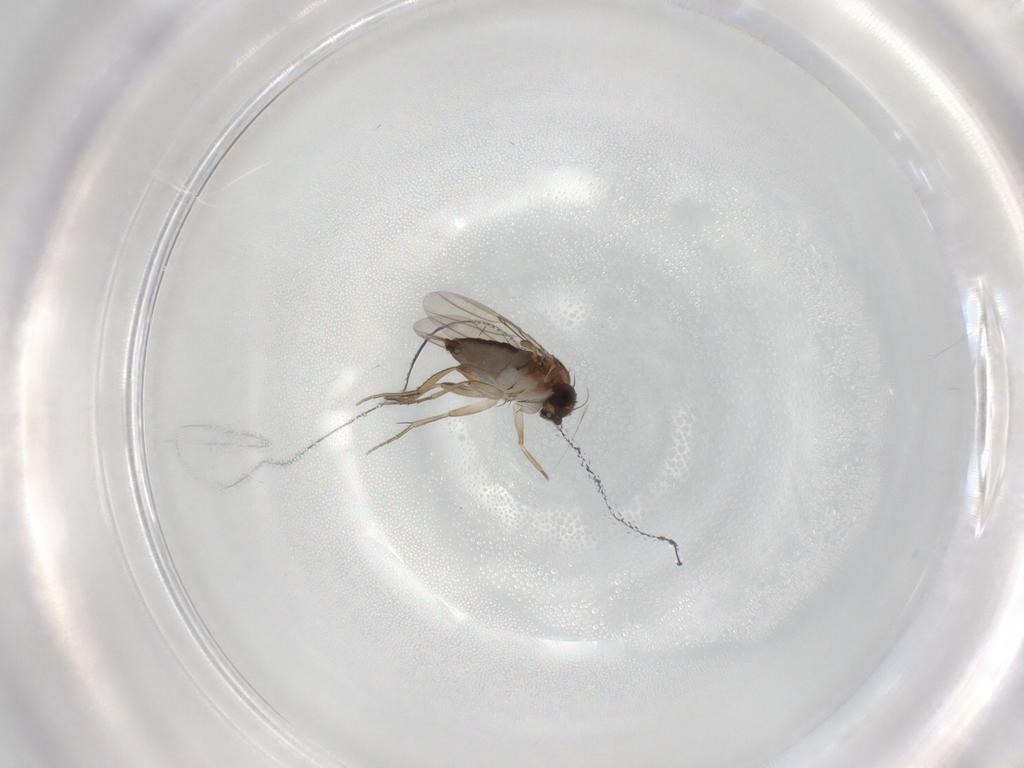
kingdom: Animalia
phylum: Arthropoda
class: Insecta
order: Diptera
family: Phoridae
